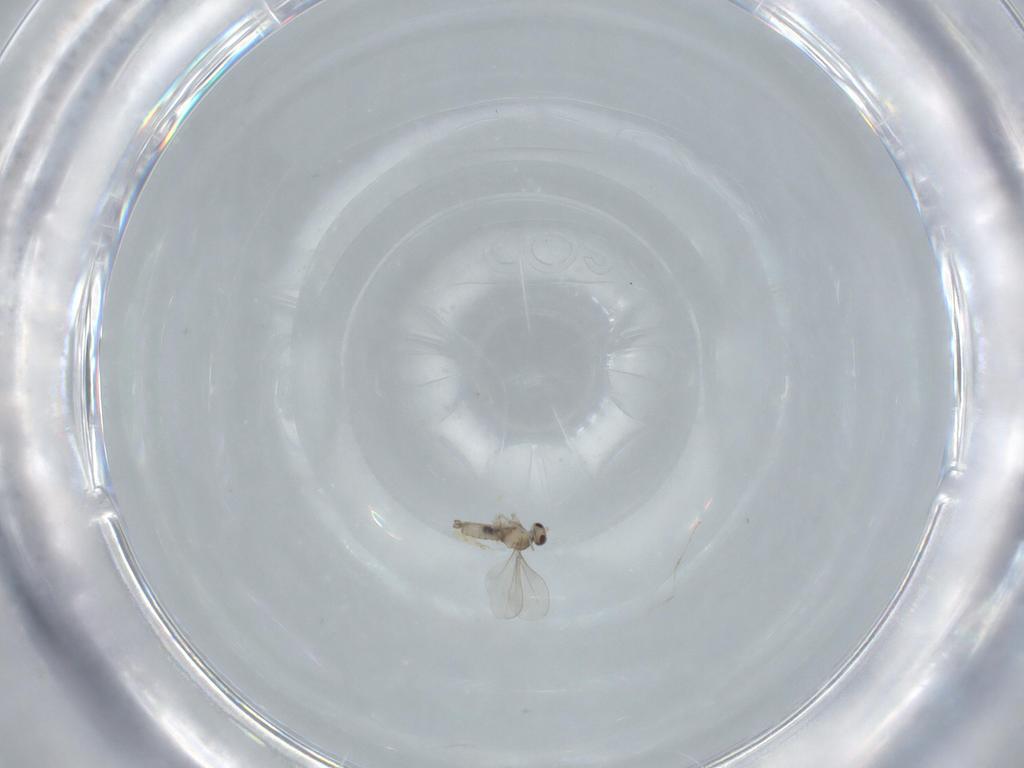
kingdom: Animalia
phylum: Arthropoda
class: Insecta
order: Diptera
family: Cecidomyiidae
